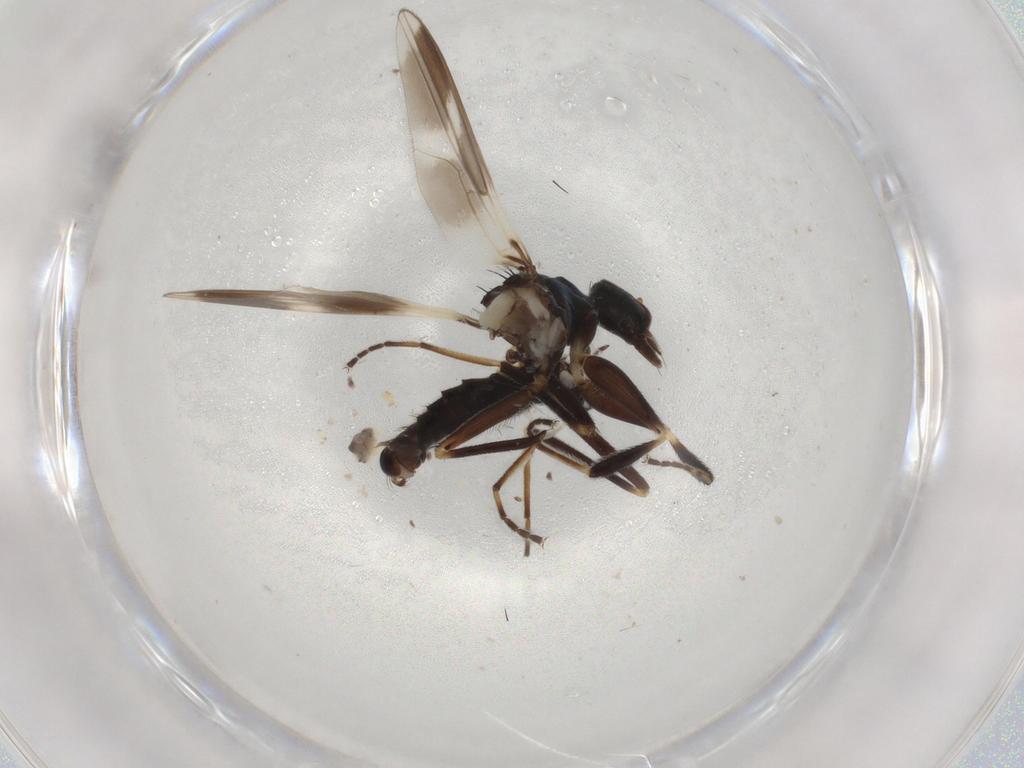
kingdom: Animalia
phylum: Arthropoda
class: Insecta
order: Diptera
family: Hybotidae
